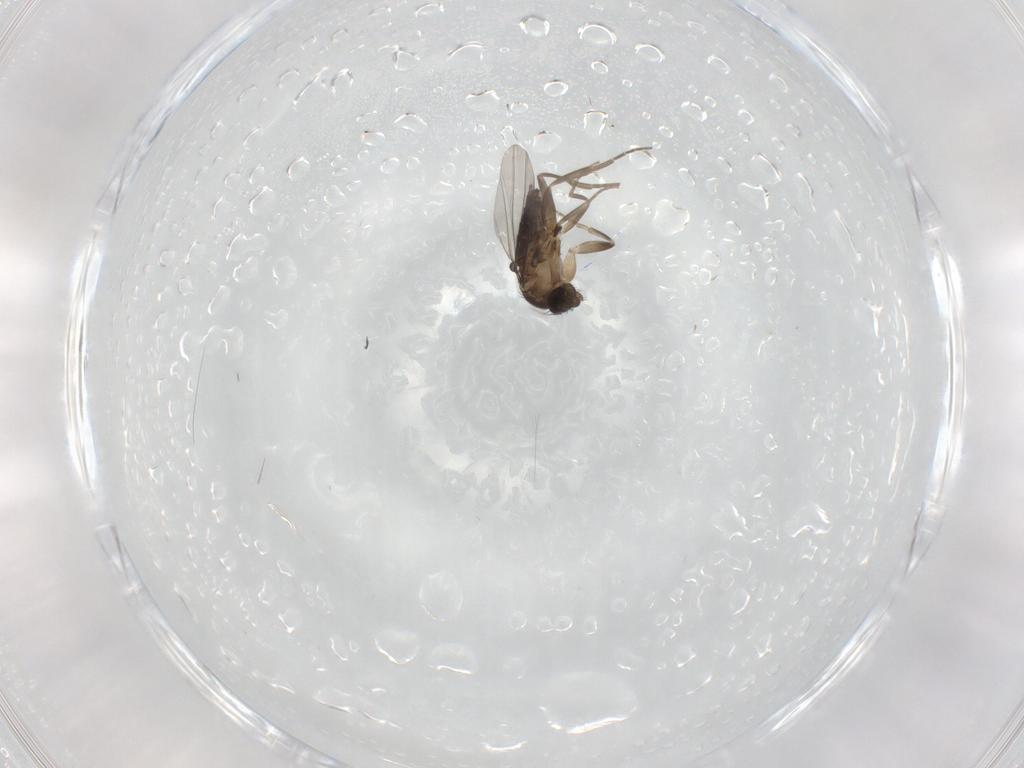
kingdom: Animalia
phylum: Arthropoda
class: Insecta
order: Diptera
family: Phoridae
